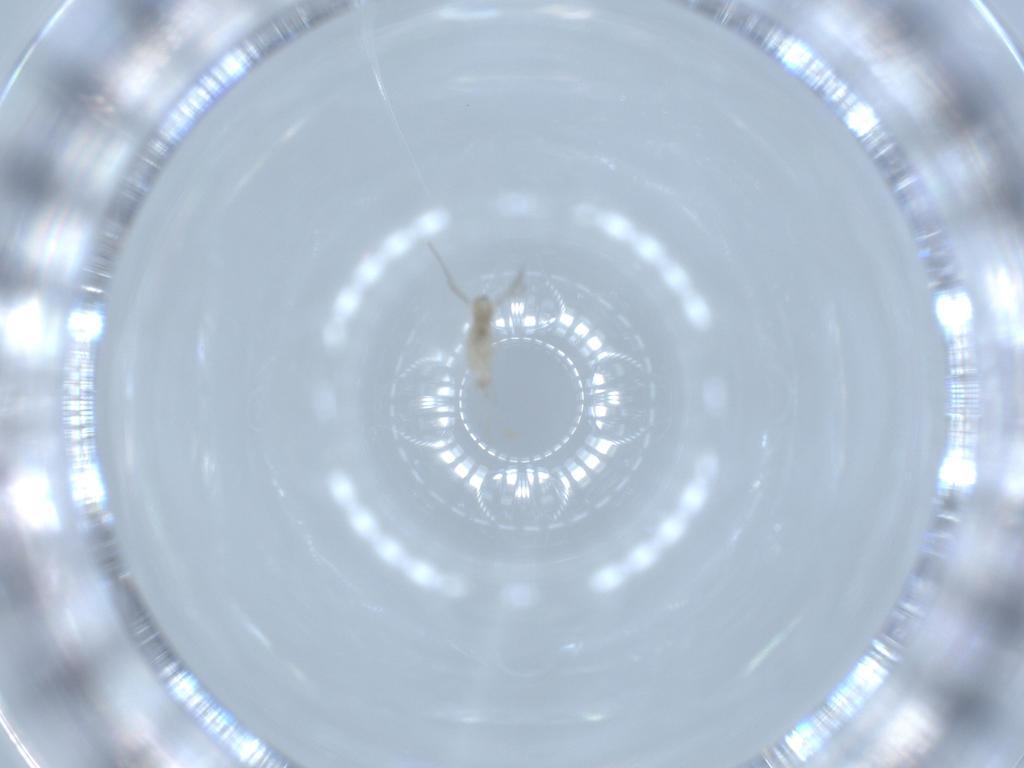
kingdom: Animalia
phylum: Arthropoda
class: Insecta
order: Diptera
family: Cecidomyiidae
